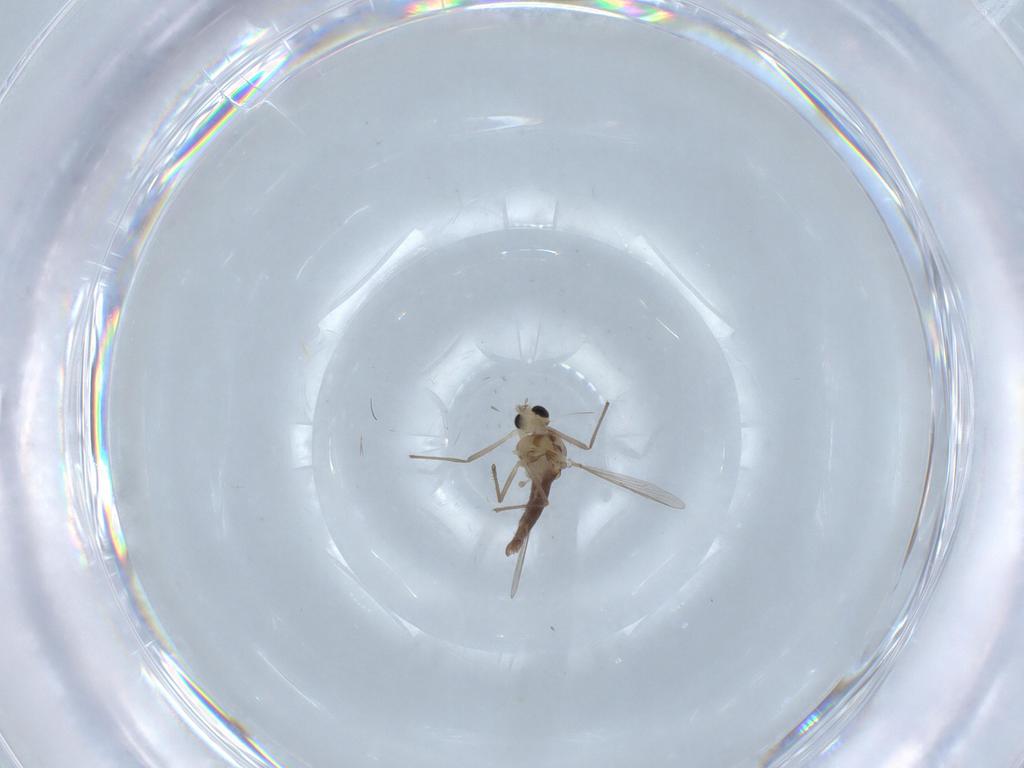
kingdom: Animalia
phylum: Arthropoda
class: Insecta
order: Diptera
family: Chironomidae
